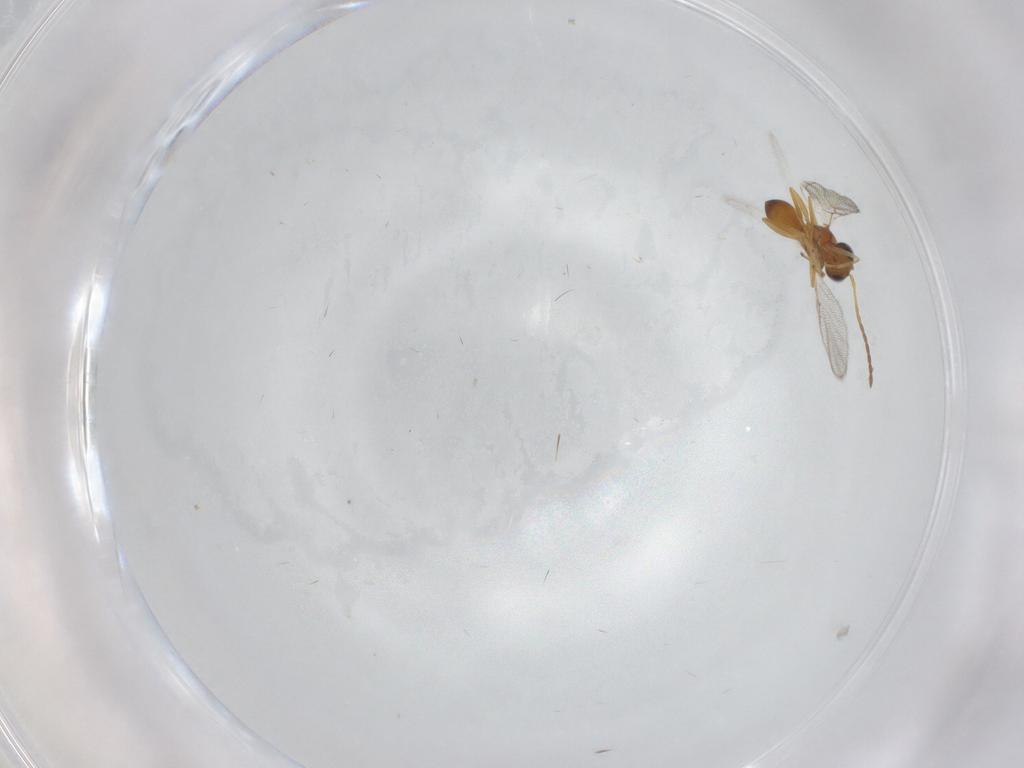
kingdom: Animalia
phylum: Arthropoda
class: Insecta
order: Hymenoptera
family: Figitidae
